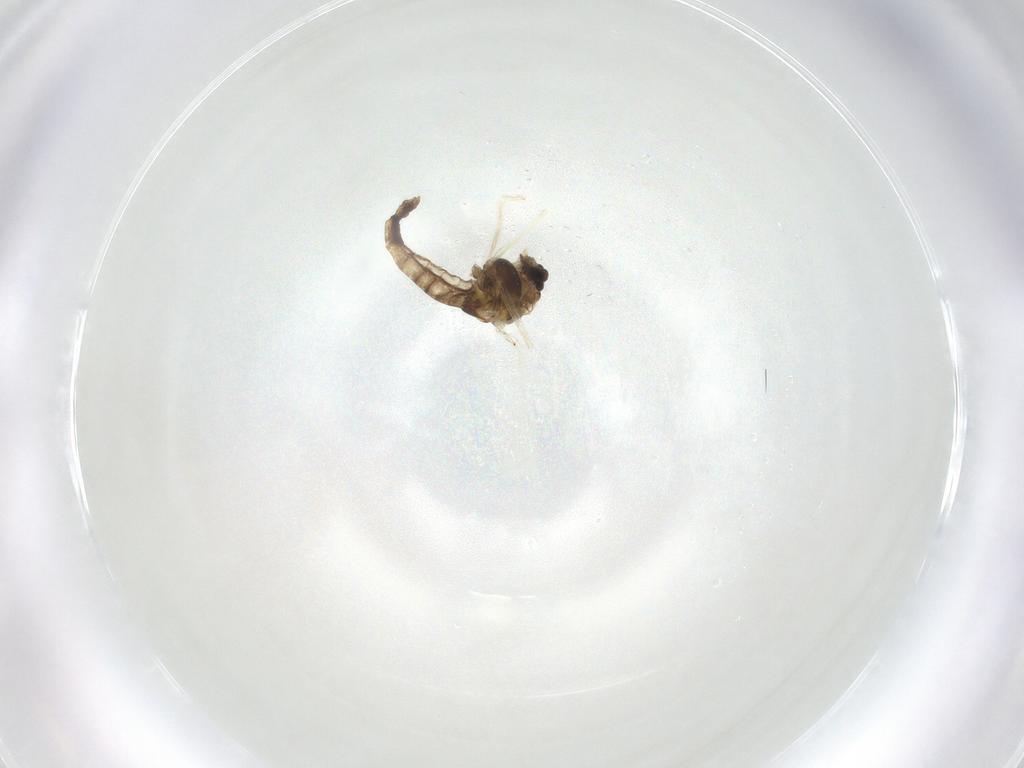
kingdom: Animalia
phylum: Arthropoda
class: Insecta
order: Diptera
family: Chironomidae
